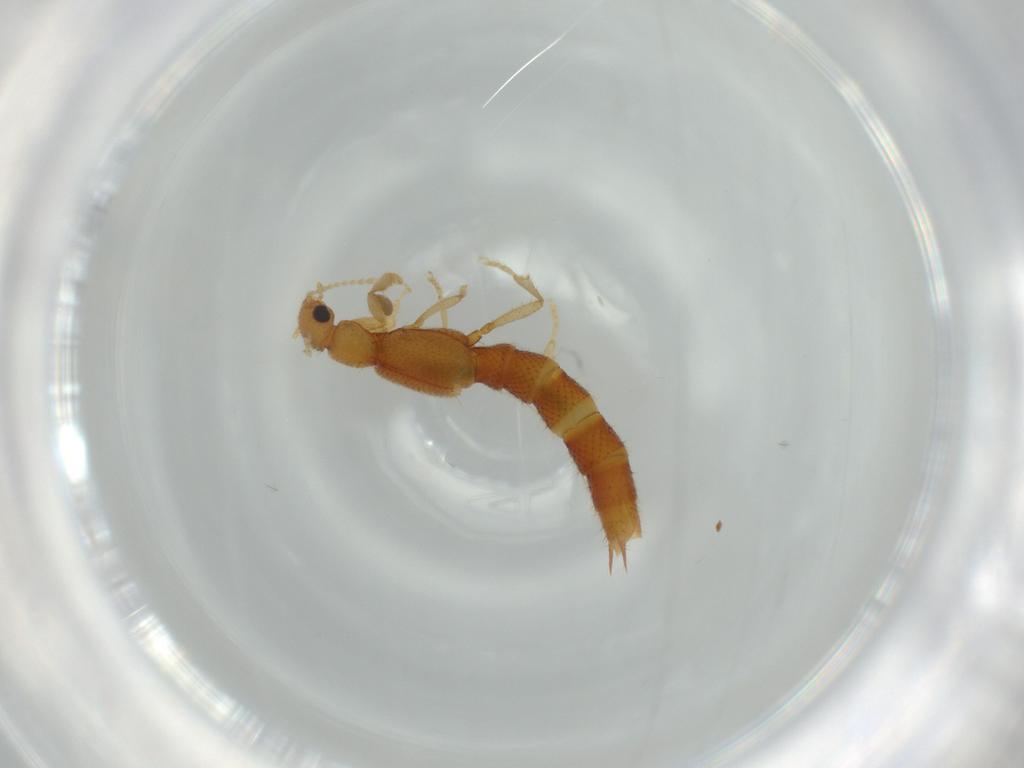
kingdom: Animalia
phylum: Arthropoda
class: Insecta
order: Coleoptera
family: Staphylinidae
